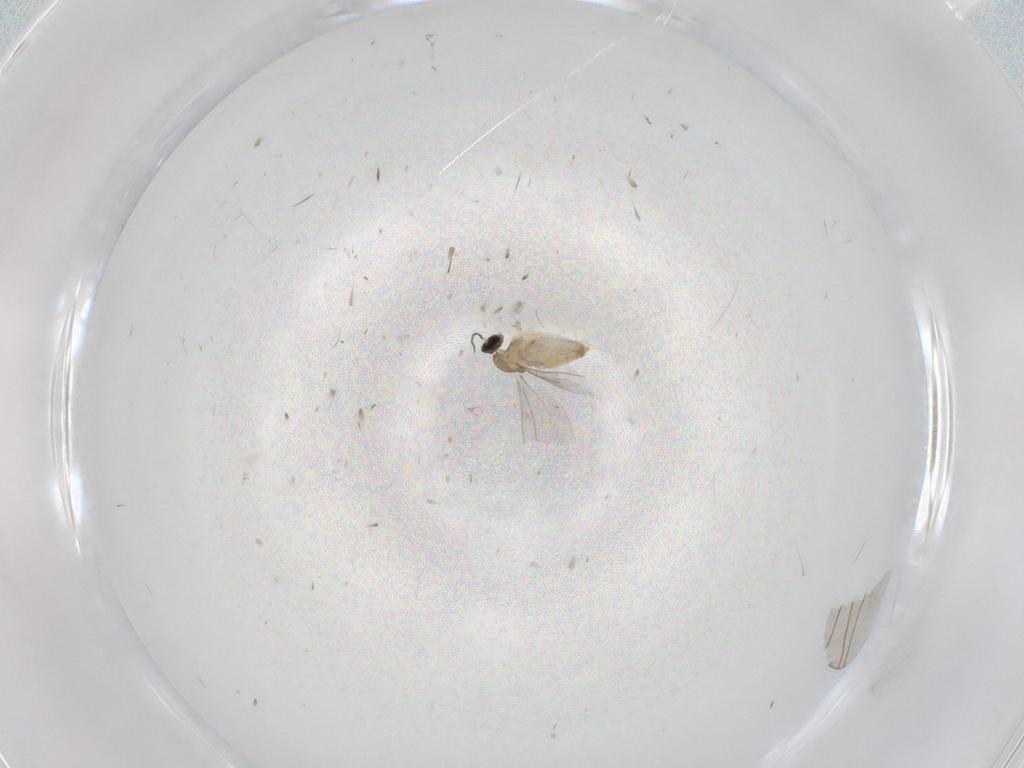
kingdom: Animalia
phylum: Arthropoda
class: Insecta
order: Diptera
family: Cecidomyiidae
